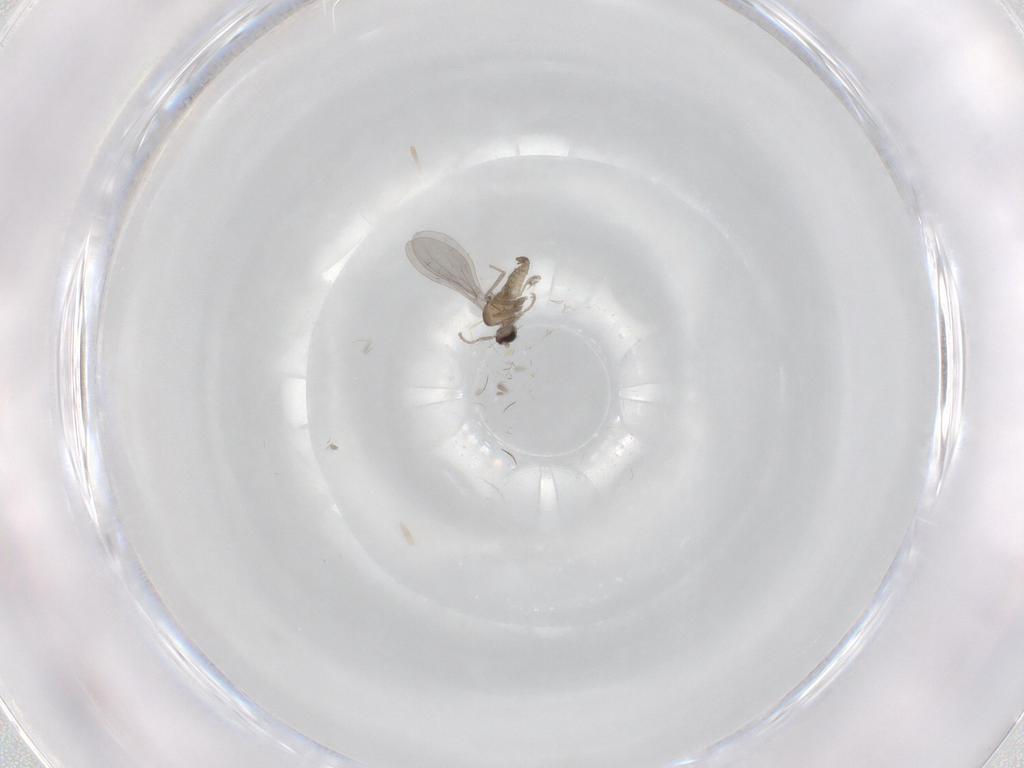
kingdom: Animalia
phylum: Arthropoda
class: Insecta
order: Diptera
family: Cecidomyiidae
